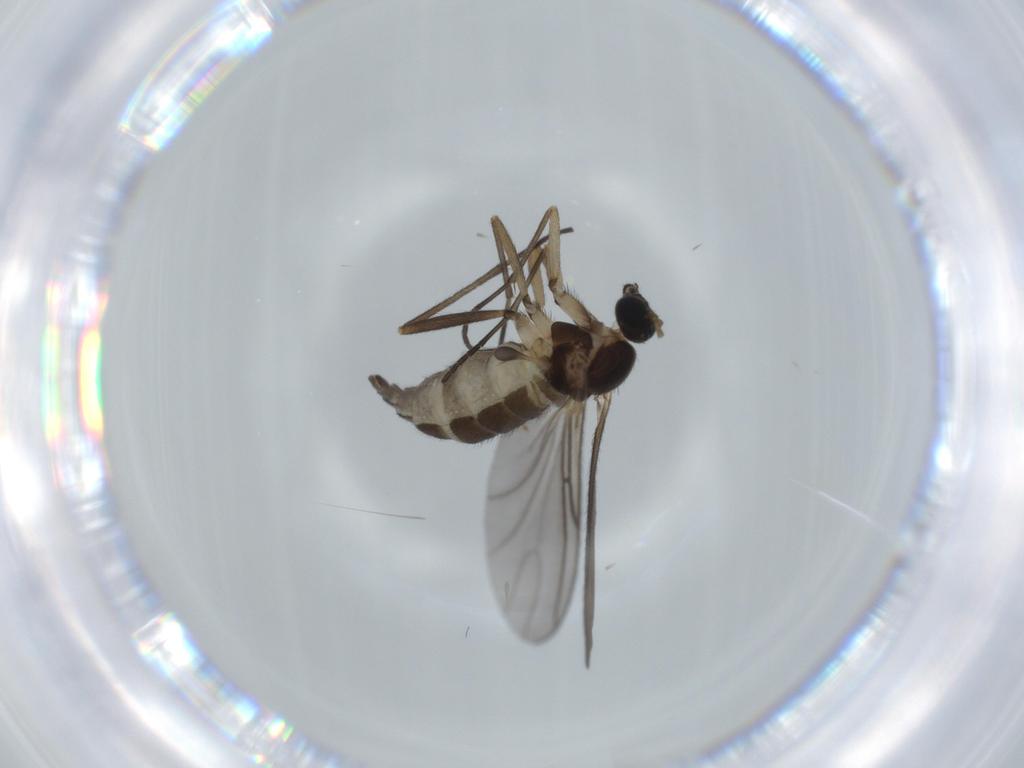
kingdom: Animalia
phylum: Arthropoda
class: Insecta
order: Diptera
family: Sciaridae
